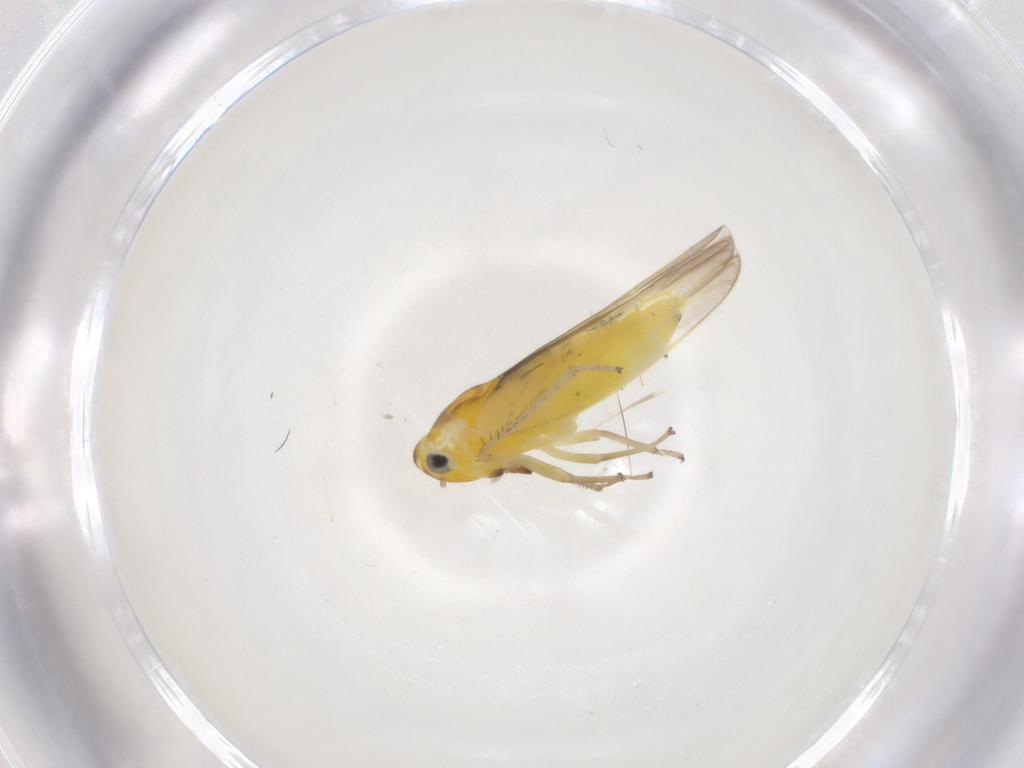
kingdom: Animalia
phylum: Arthropoda
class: Insecta
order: Hemiptera
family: Cicadellidae
